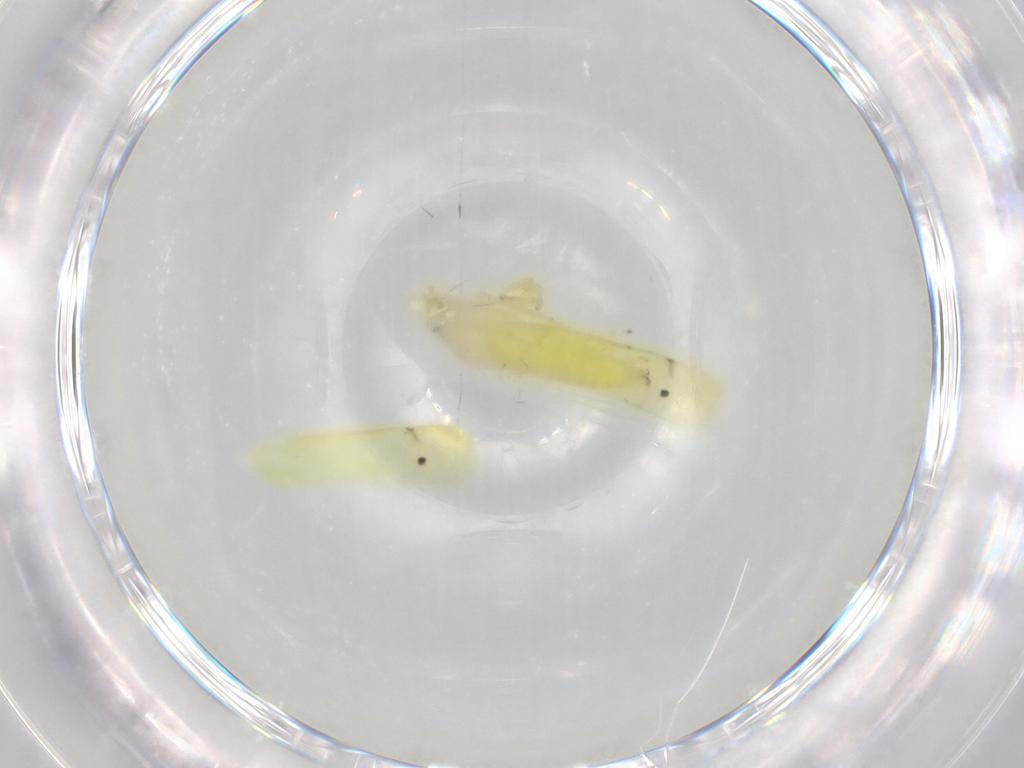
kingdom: Animalia
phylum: Arthropoda
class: Insecta
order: Hemiptera
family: Cicadellidae
